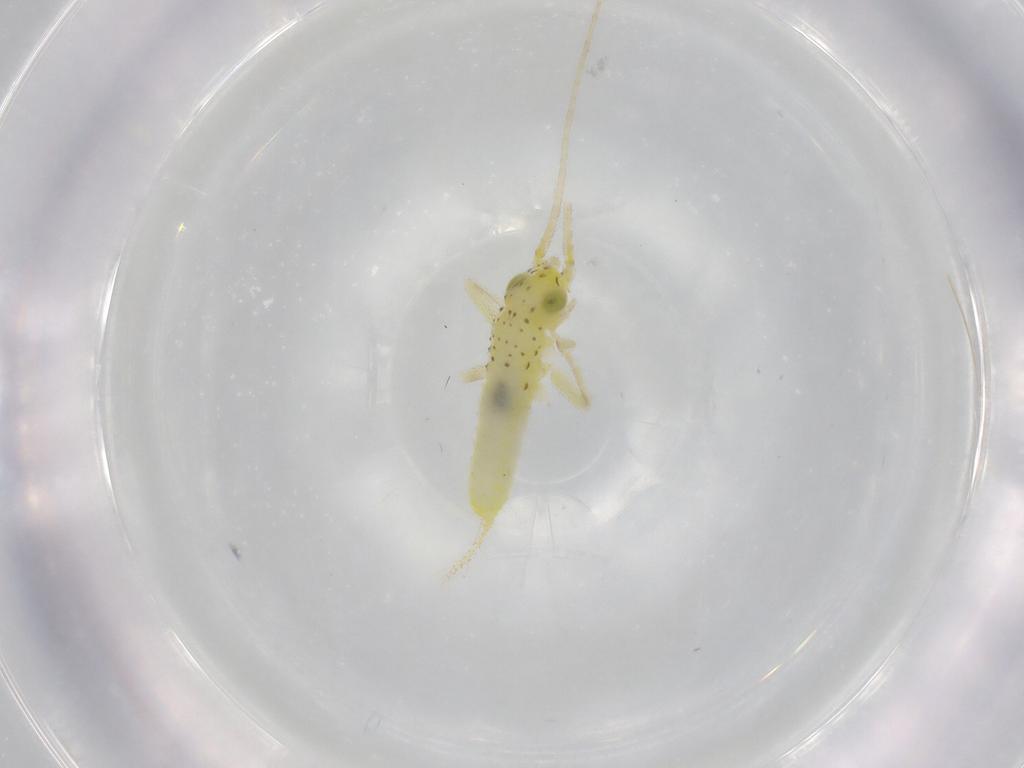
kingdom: Animalia
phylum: Arthropoda
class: Insecta
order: Orthoptera
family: Trigonidiidae
